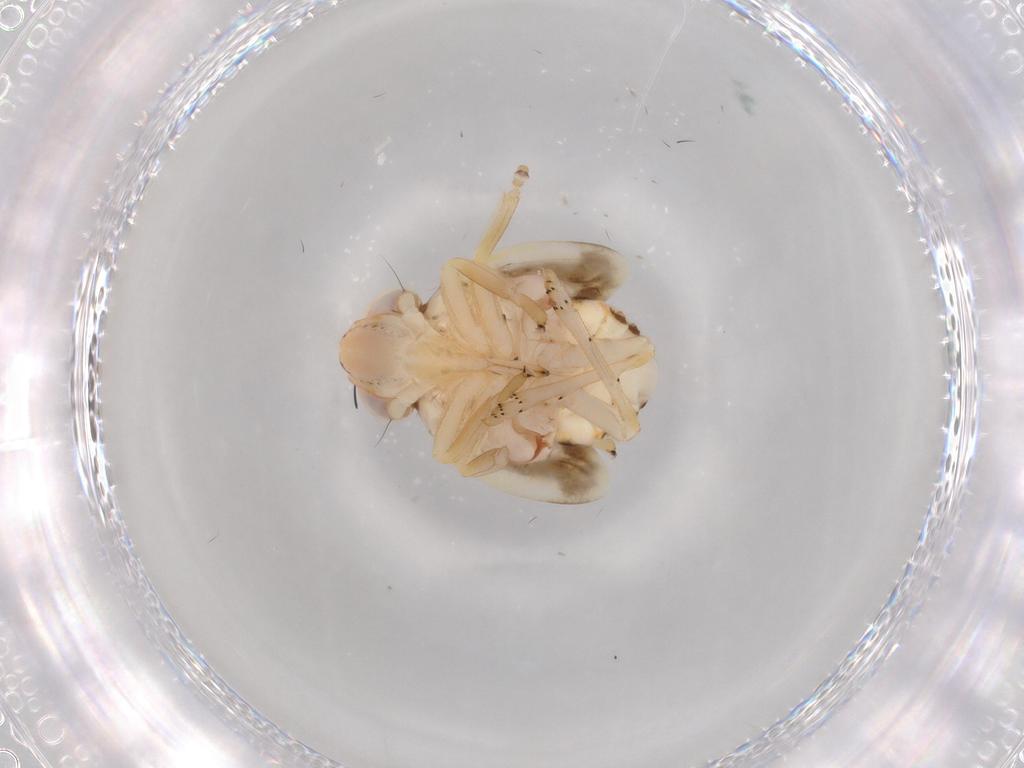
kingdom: Animalia
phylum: Arthropoda
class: Insecta
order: Hemiptera
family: Nogodinidae
